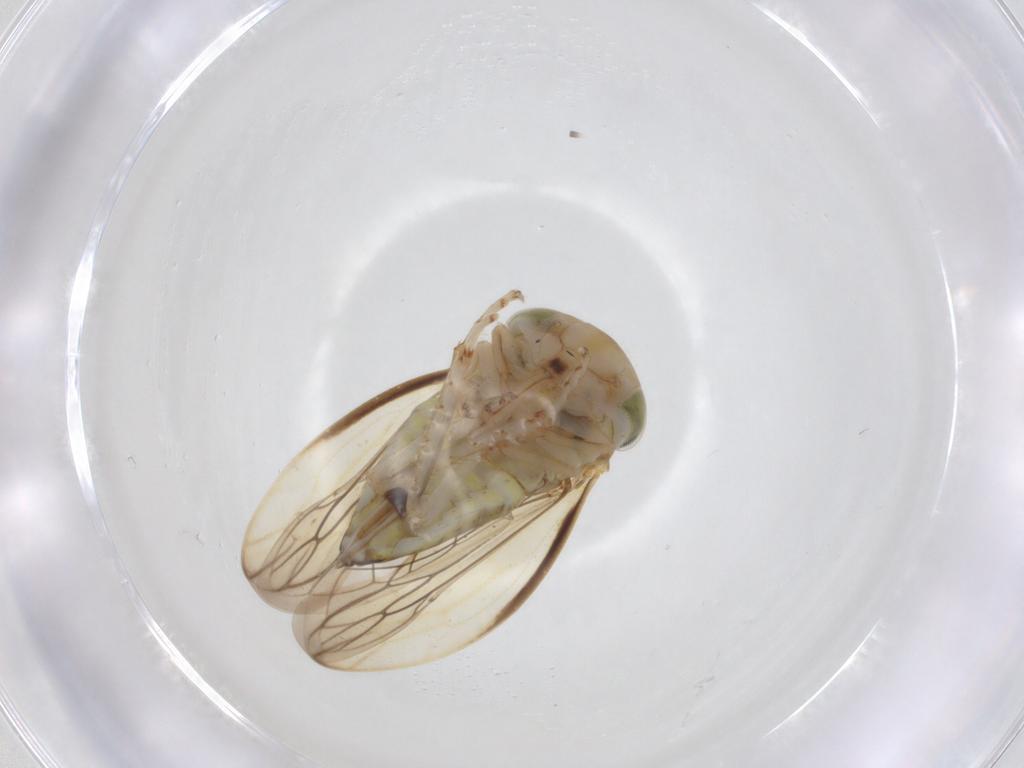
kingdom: Animalia
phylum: Arthropoda
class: Insecta
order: Hemiptera
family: Cicadellidae
